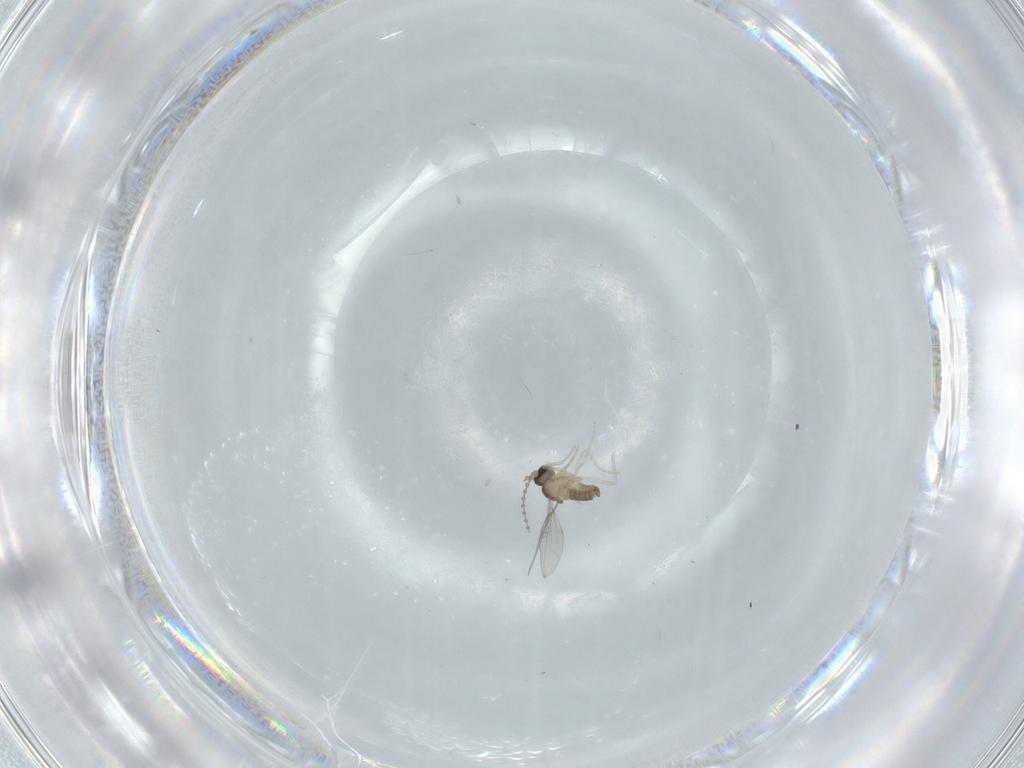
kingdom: Animalia
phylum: Arthropoda
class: Insecta
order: Diptera
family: Cecidomyiidae
